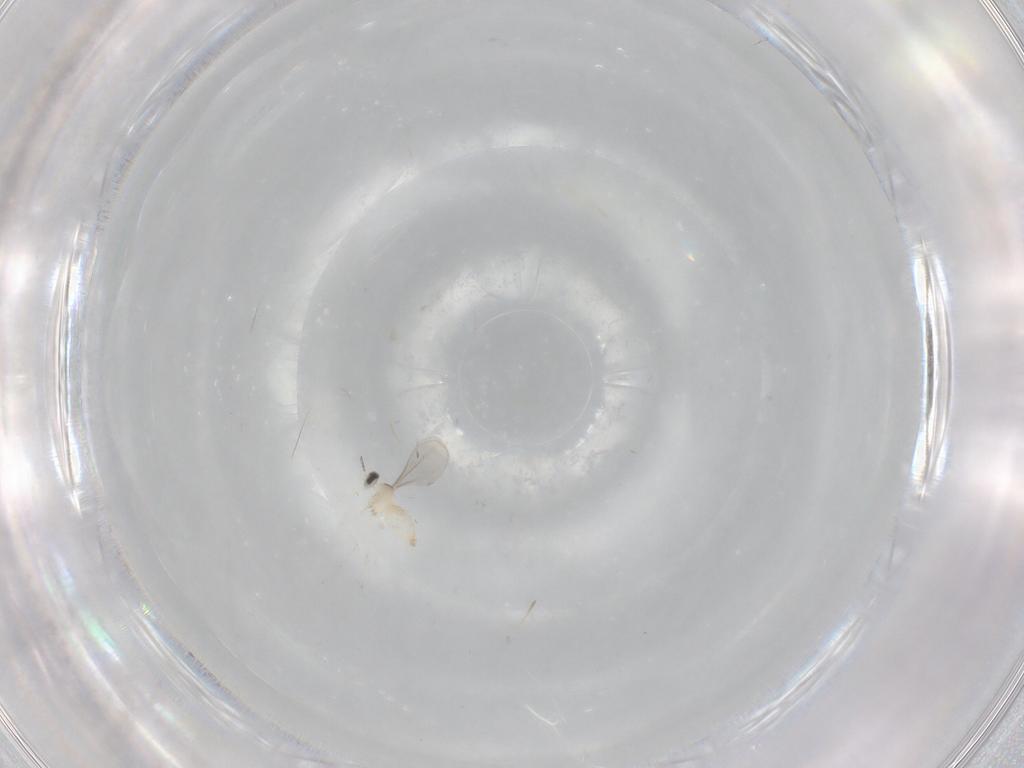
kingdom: Animalia
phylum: Arthropoda
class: Insecta
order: Diptera
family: Cecidomyiidae
